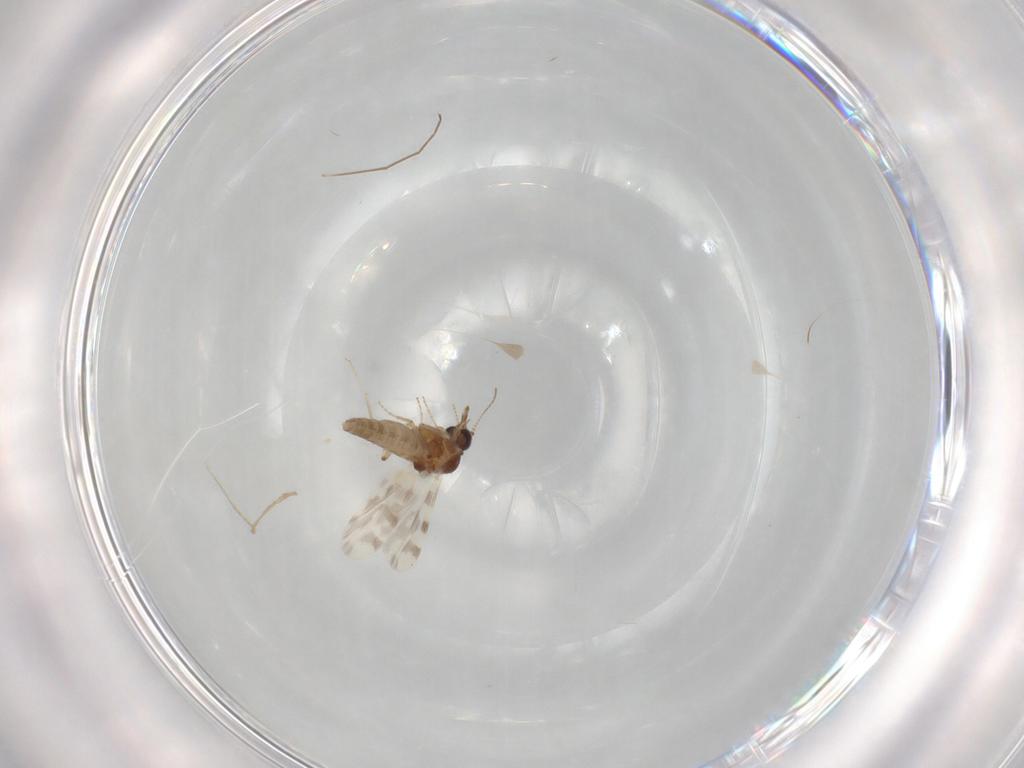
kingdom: Animalia
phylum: Arthropoda
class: Insecta
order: Diptera
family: Chironomidae
